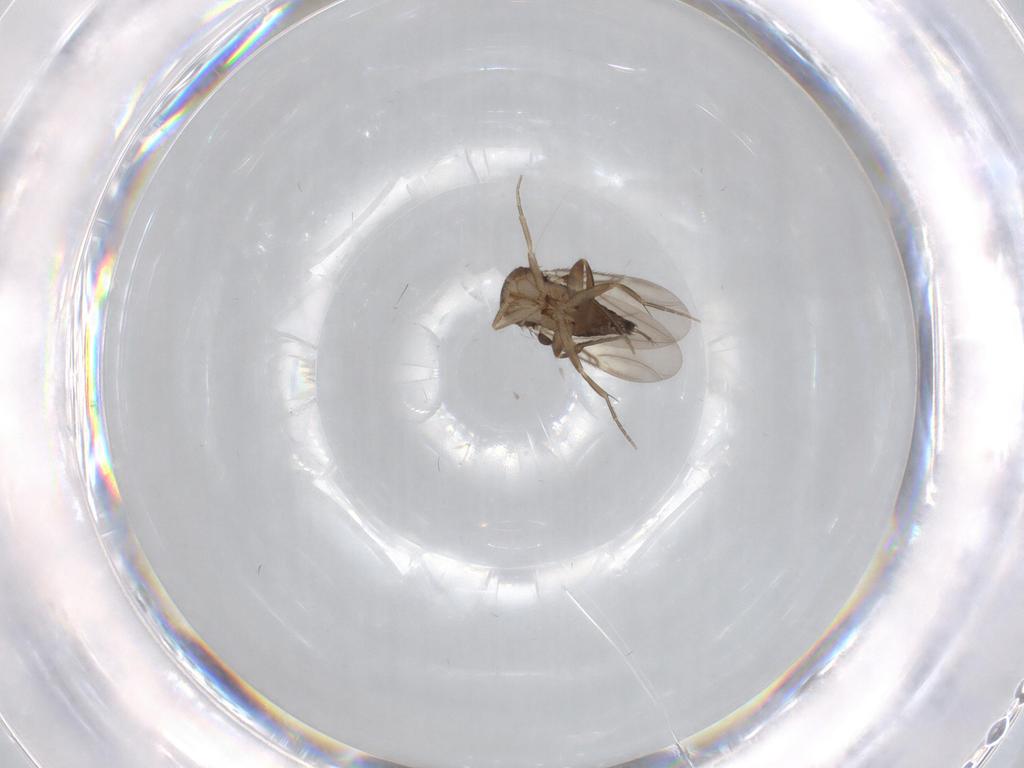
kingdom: Animalia
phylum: Arthropoda
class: Insecta
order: Diptera
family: Phoridae
